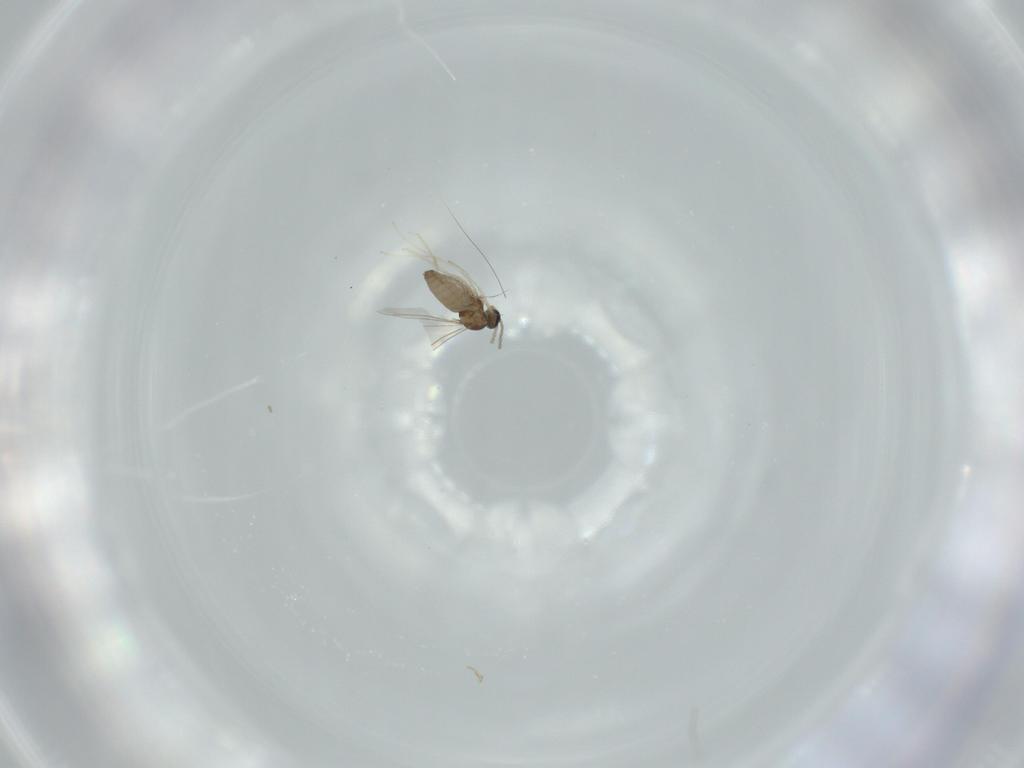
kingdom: Animalia
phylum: Arthropoda
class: Insecta
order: Diptera
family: Cecidomyiidae
